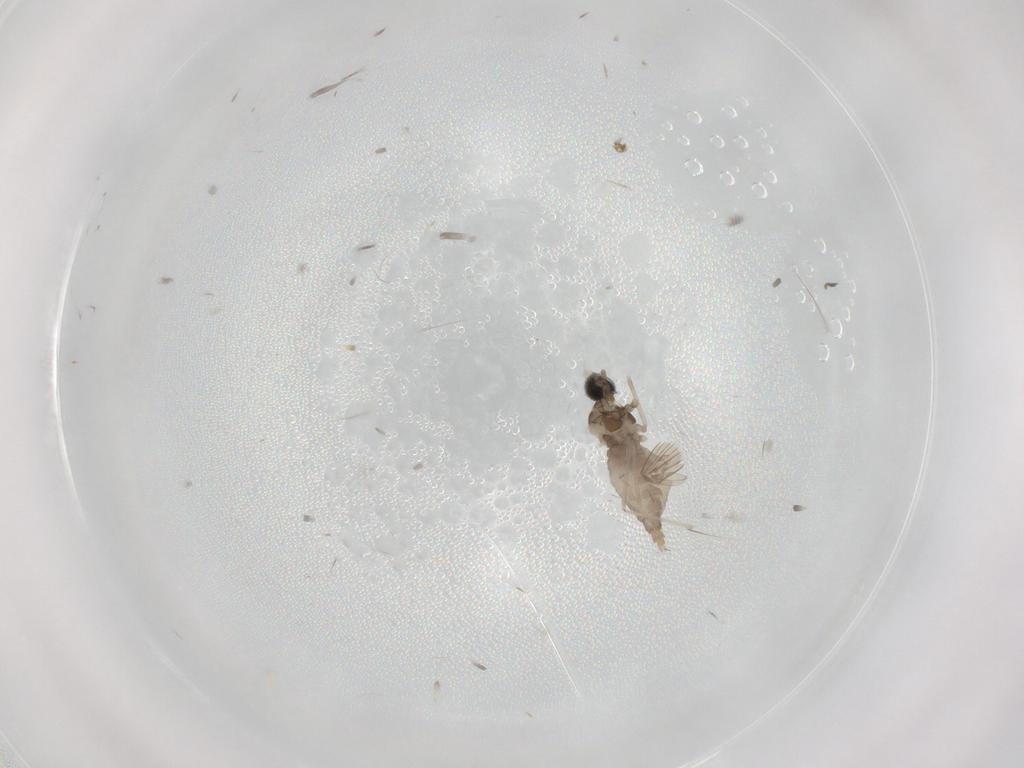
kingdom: Animalia
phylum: Arthropoda
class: Insecta
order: Diptera
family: Cecidomyiidae
